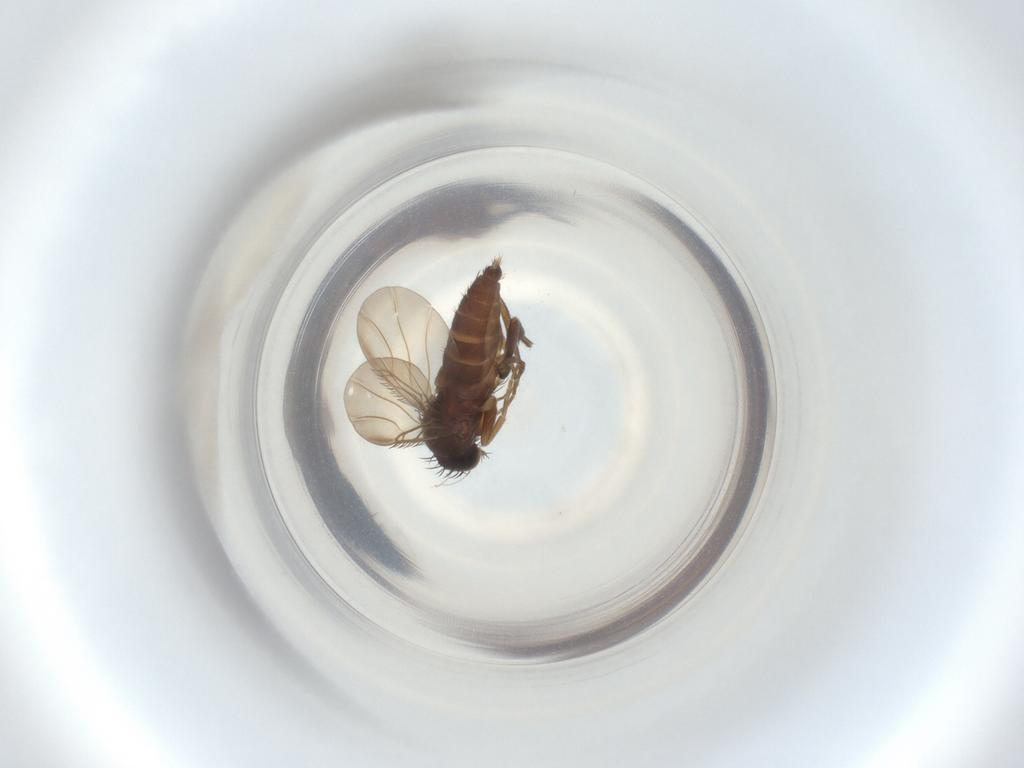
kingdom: Animalia
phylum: Arthropoda
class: Insecta
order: Diptera
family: Phoridae
